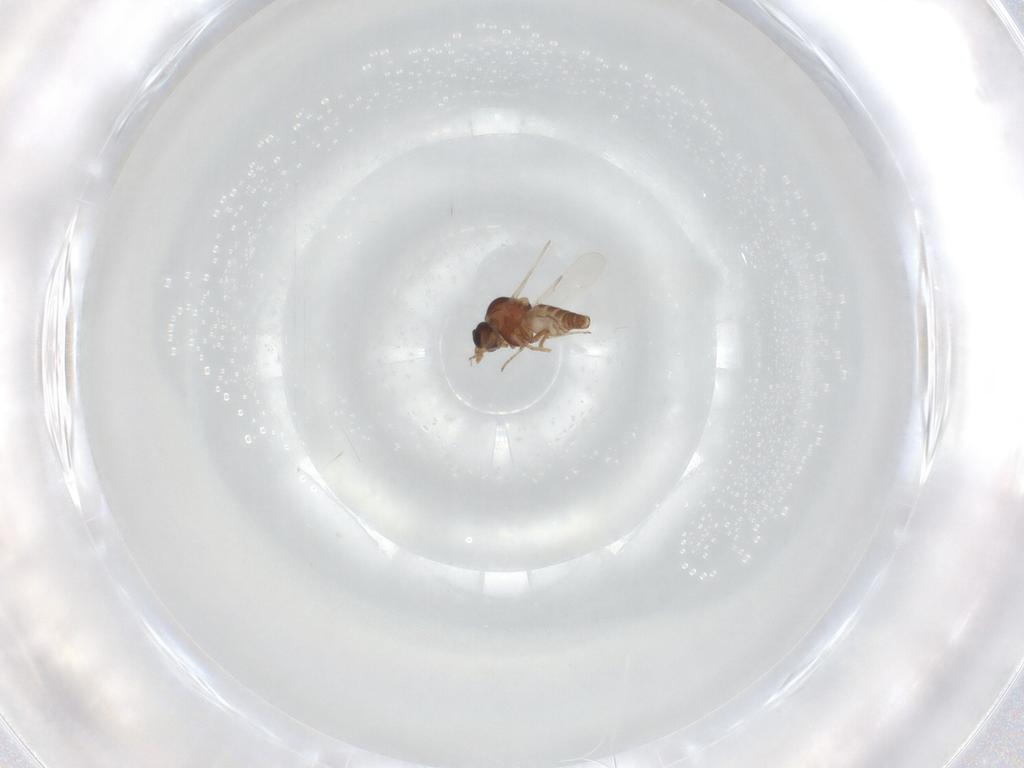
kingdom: Animalia
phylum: Arthropoda
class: Insecta
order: Diptera
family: Ceratopogonidae
